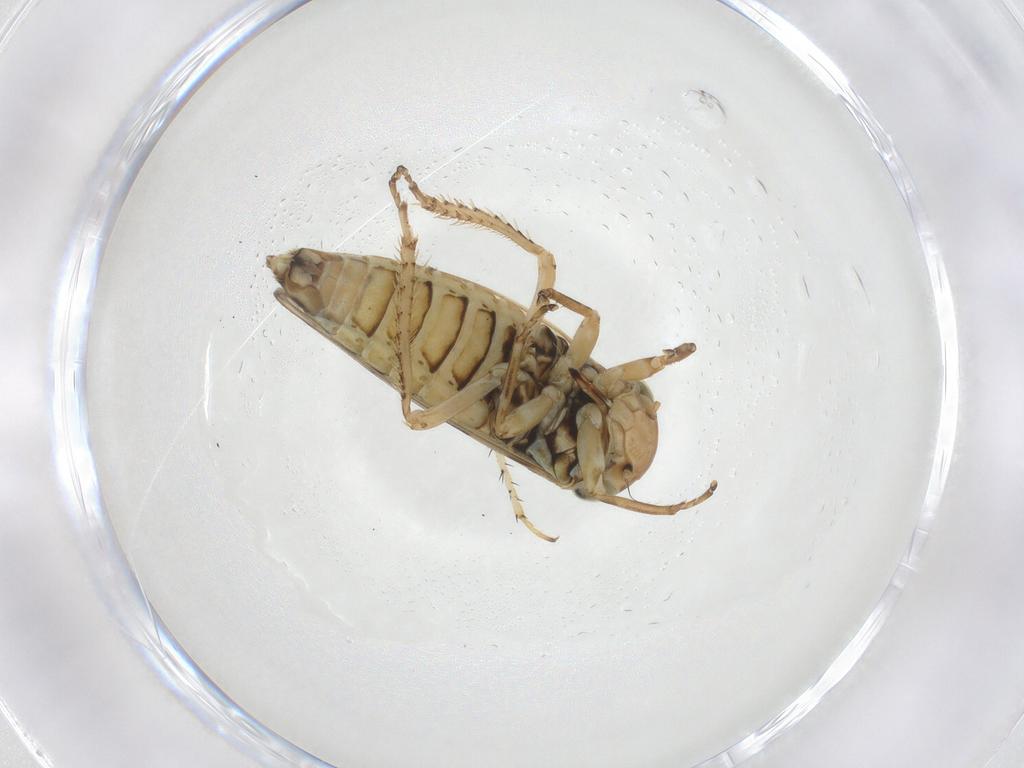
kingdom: Animalia
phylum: Arthropoda
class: Insecta
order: Hemiptera
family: Cicadellidae
